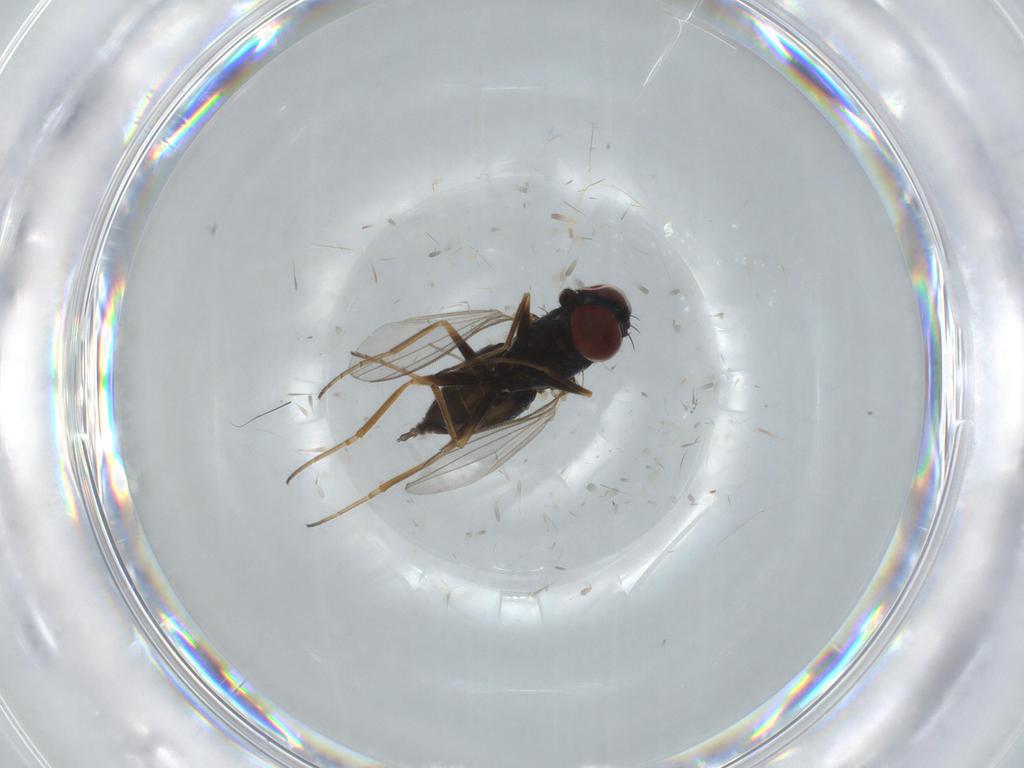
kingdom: Animalia
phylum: Arthropoda
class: Insecta
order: Diptera
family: Dolichopodidae
